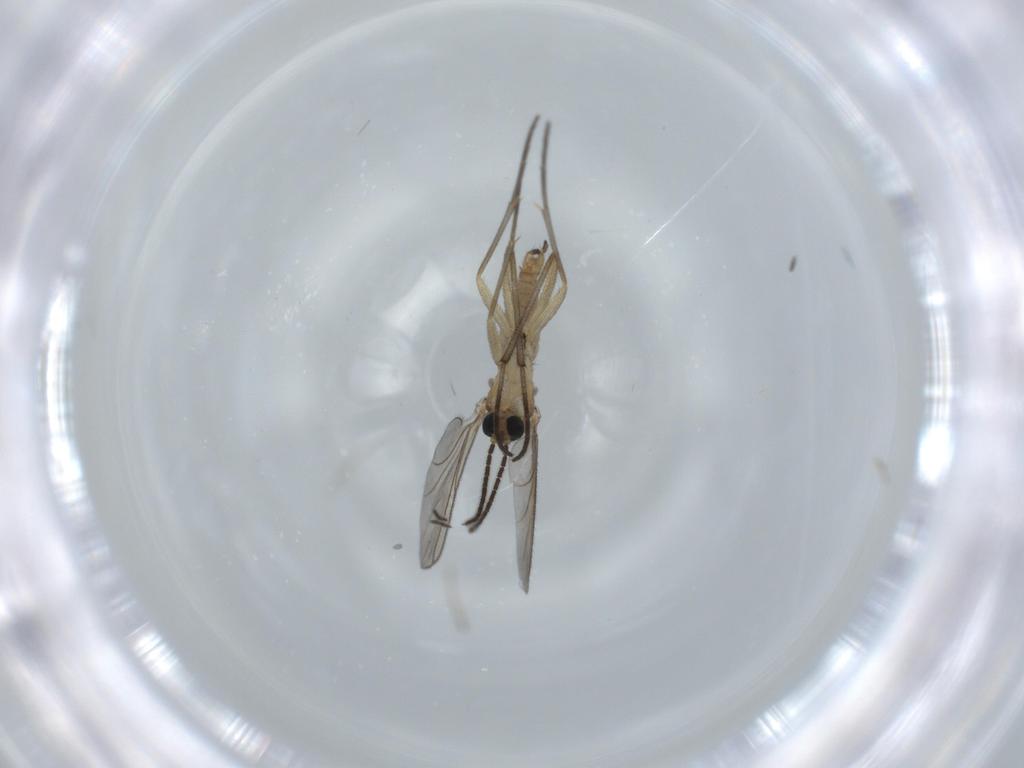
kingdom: Animalia
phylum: Arthropoda
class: Insecta
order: Diptera
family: Sciaridae
